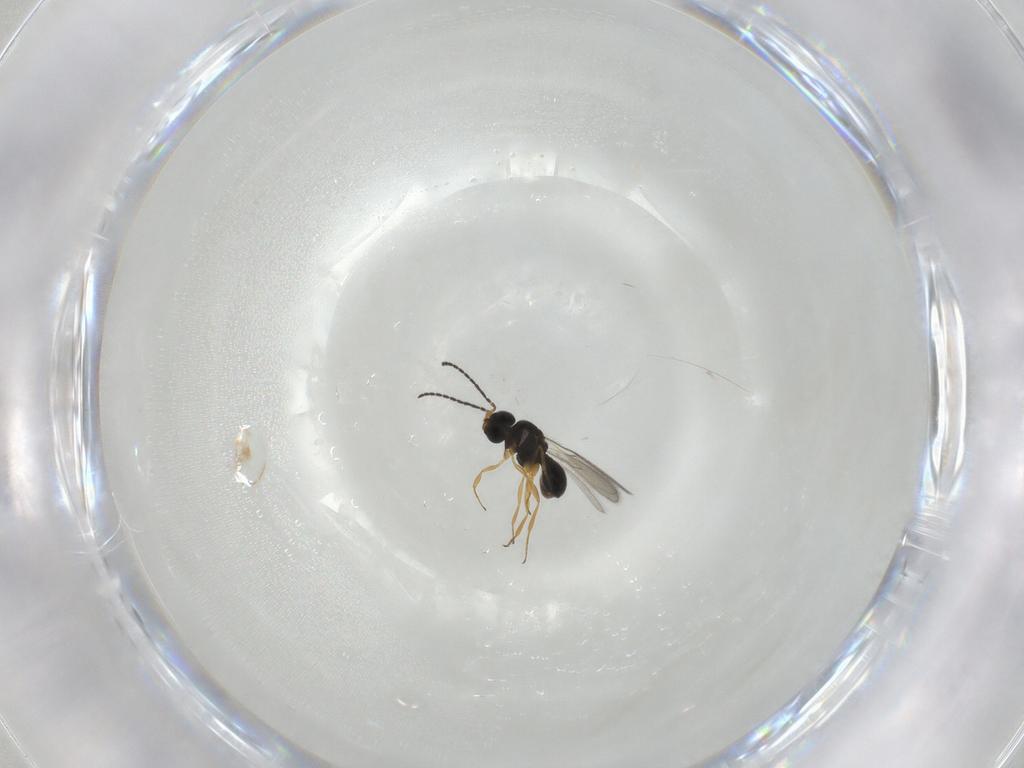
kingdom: Animalia
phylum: Arthropoda
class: Insecta
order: Hymenoptera
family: Scelionidae
